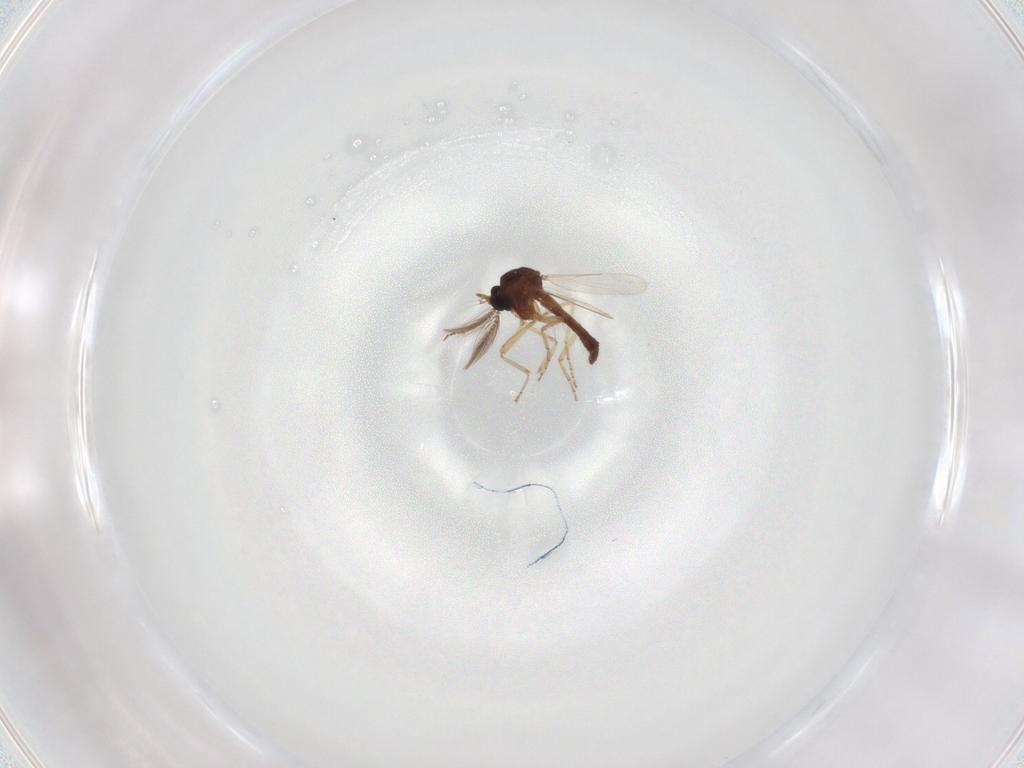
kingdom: Animalia
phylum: Arthropoda
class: Insecta
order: Diptera
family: Ceratopogonidae
